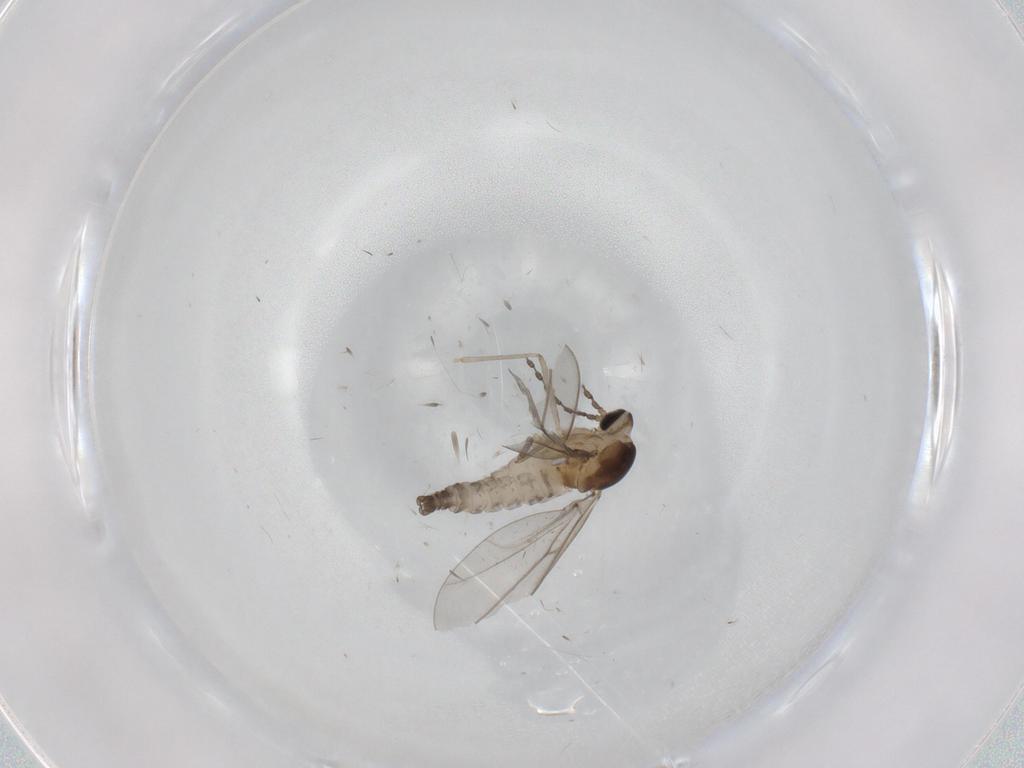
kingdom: Animalia
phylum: Arthropoda
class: Insecta
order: Diptera
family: Cecidomyiidae
